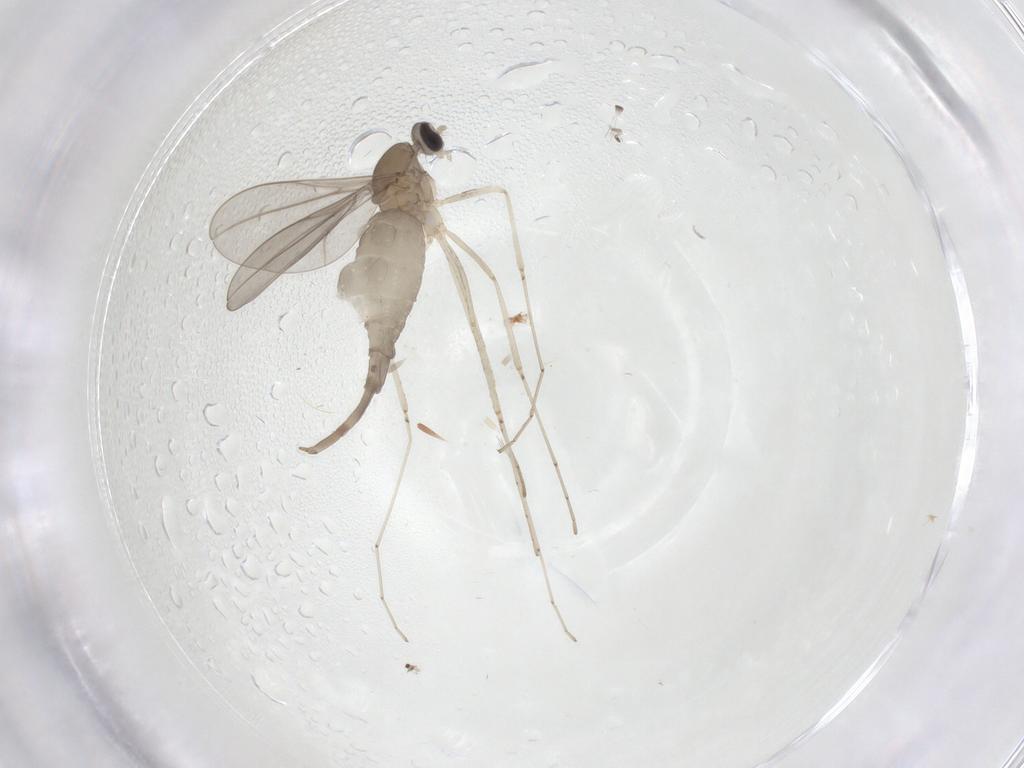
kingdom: Animalia
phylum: Arthropoda
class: Insecta
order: Diptera
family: Cecidomyiidae
